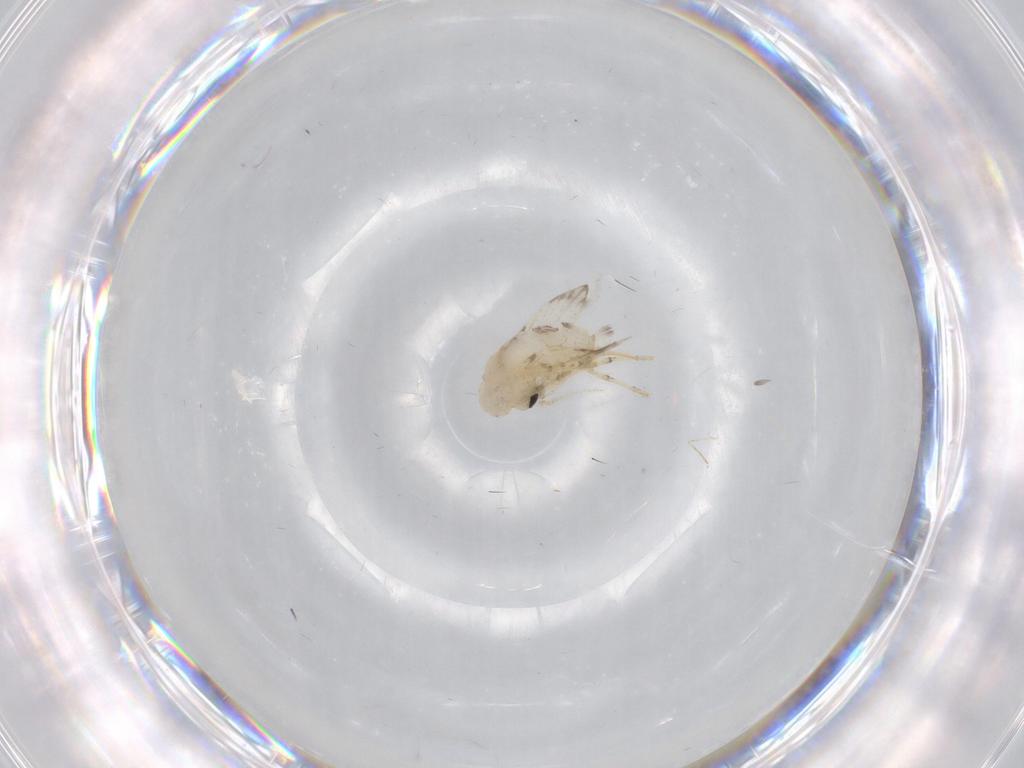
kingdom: Animalia
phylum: Arthropoda
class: Insecta
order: Diptera
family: Psychodidae
